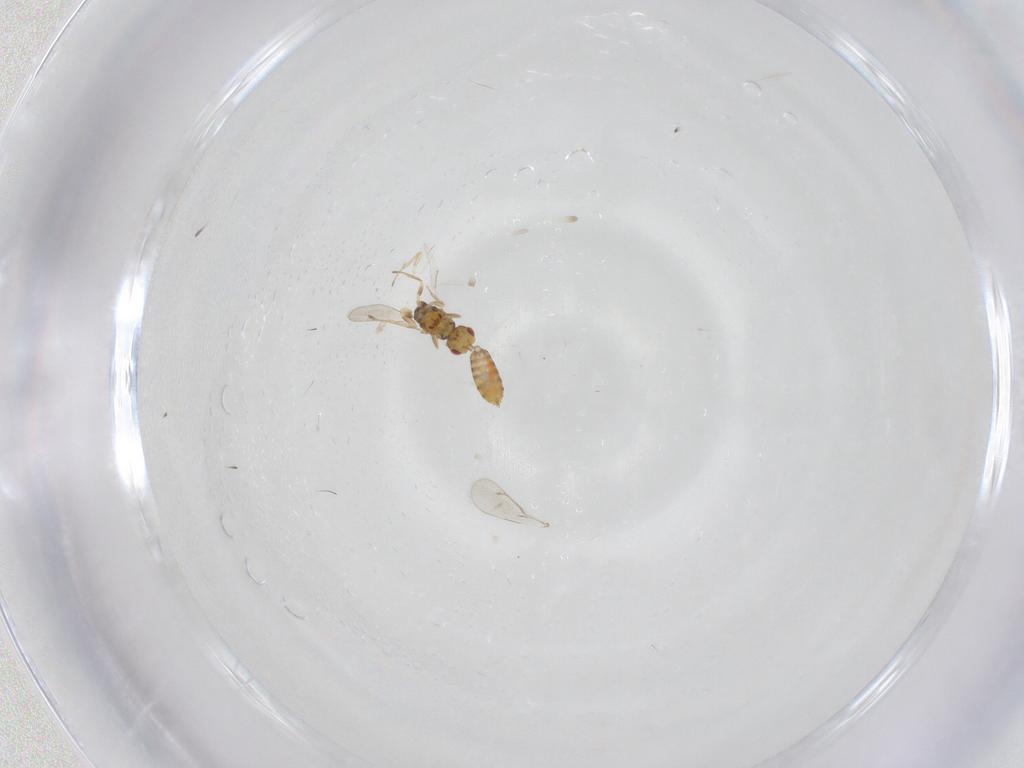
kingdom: Animalia
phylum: Arthropoda
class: Insecta
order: Hymenoptera
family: Eulophidae
